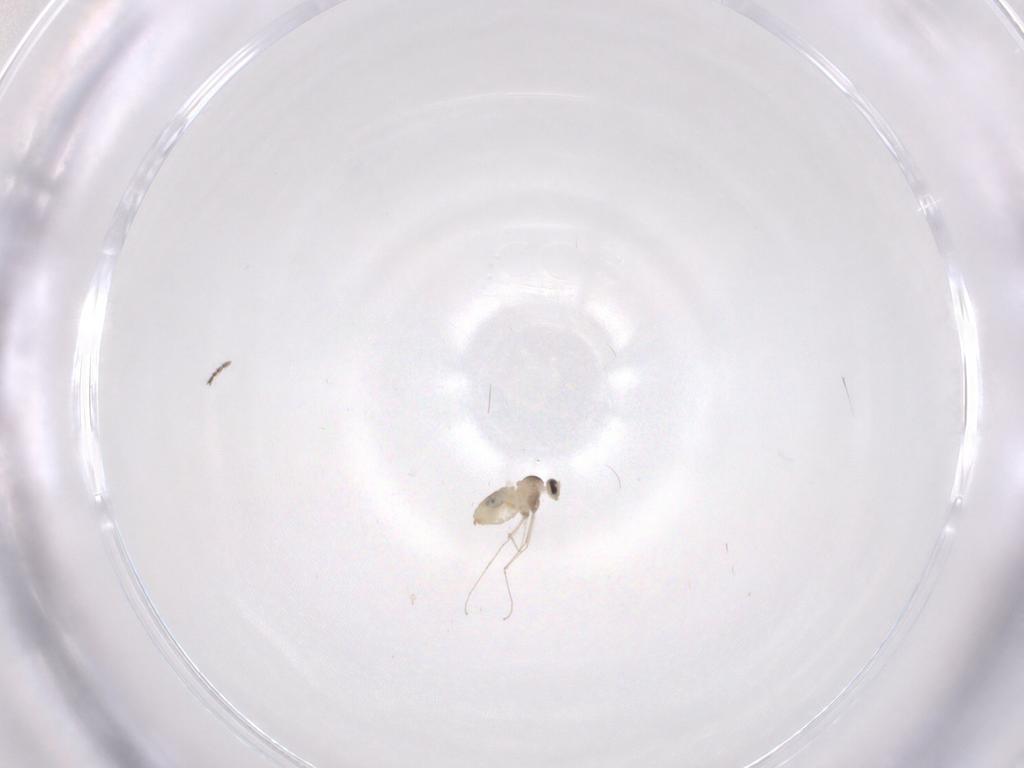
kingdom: Animalia
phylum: Arthropoda
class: Insecta
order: Diptera
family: Cecidomyiidae
